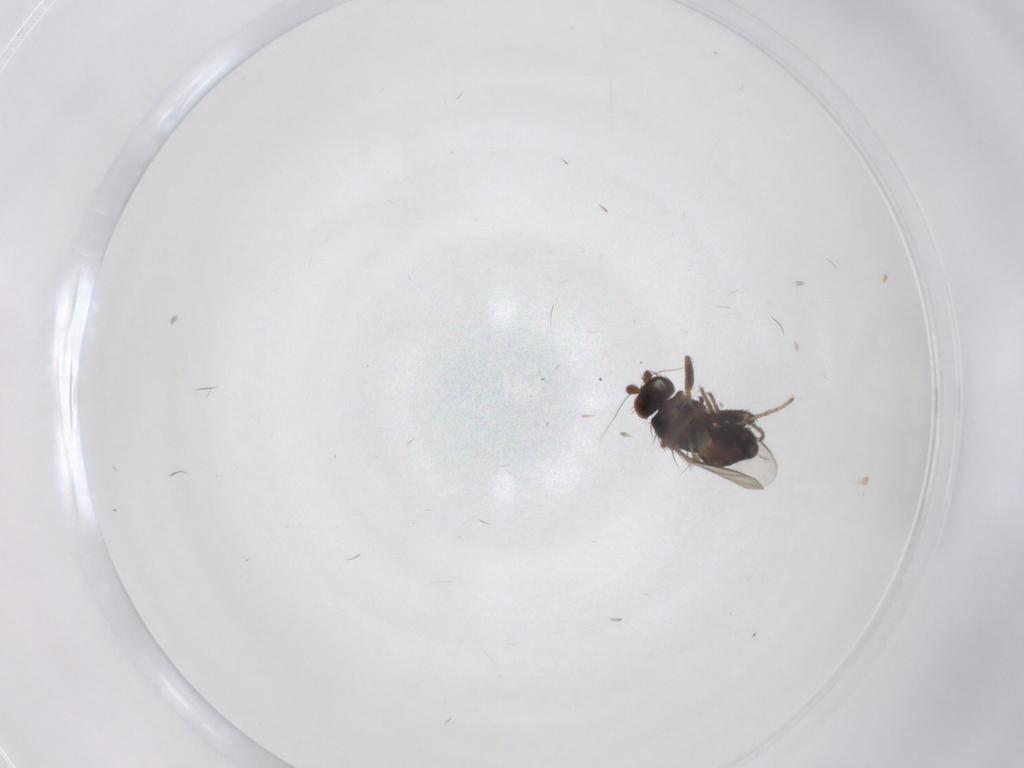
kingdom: Animalia
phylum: Arthropoda
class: Insecta
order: Diptera
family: Sphaeroceridae
